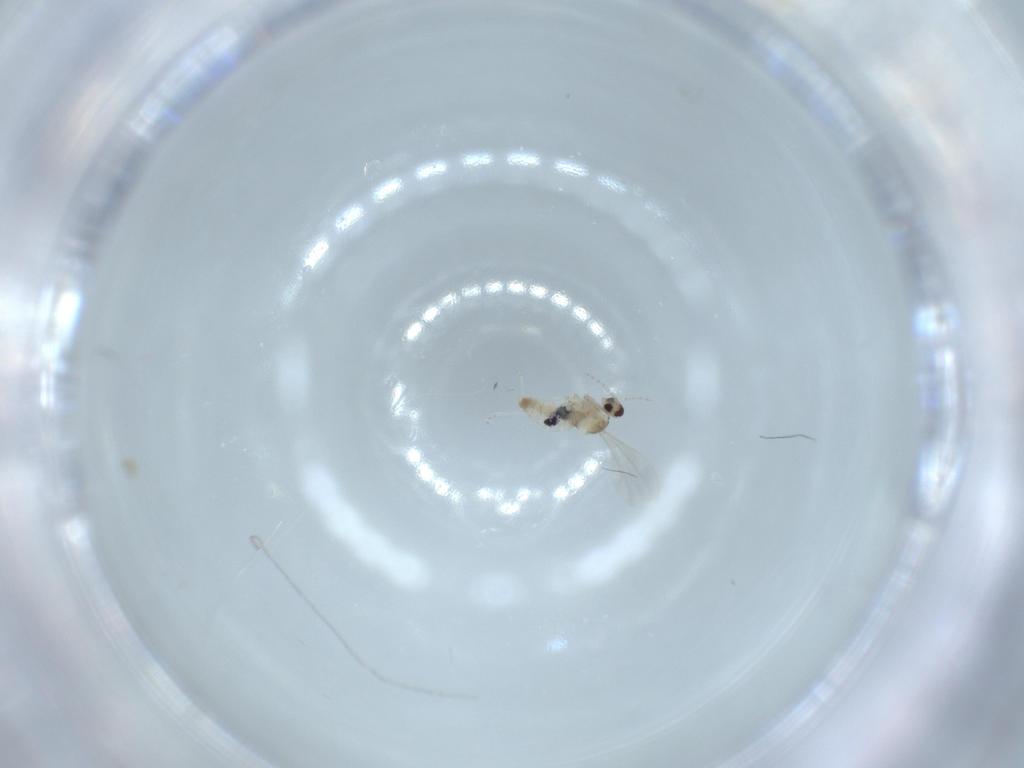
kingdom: Animalia
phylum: Arthropoda
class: Insecta
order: Diptera
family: Cecidomyiidae
